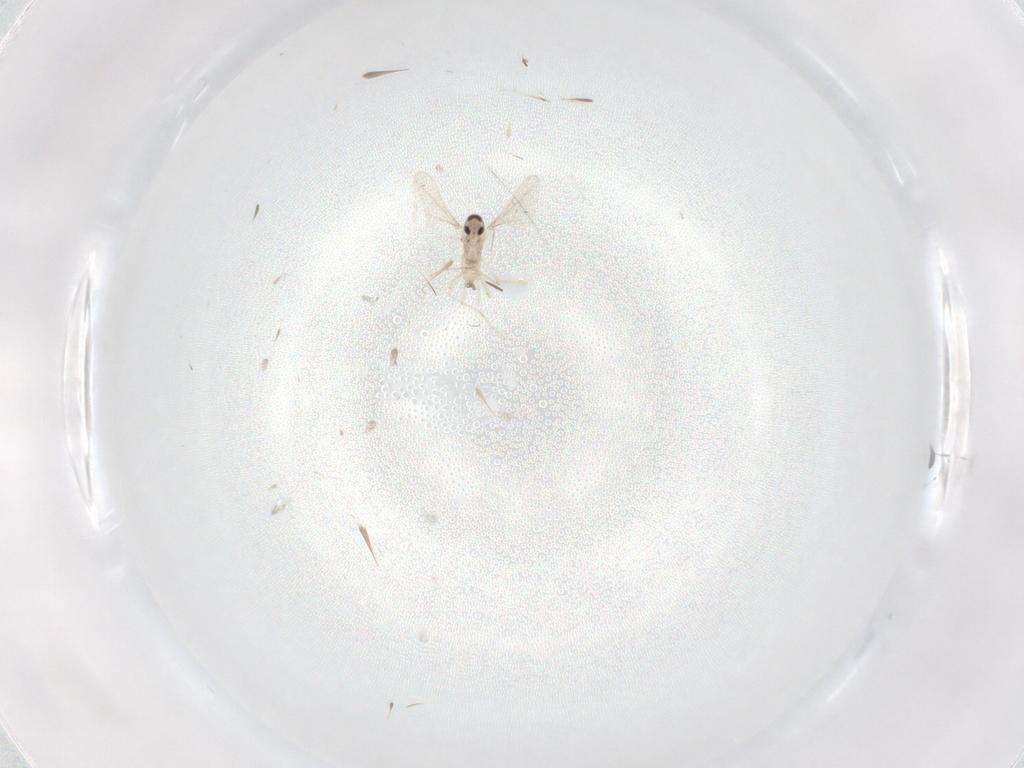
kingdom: Animalia
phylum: Arthropoda
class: Insecta
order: Diptera
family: Cecidomyiidae
